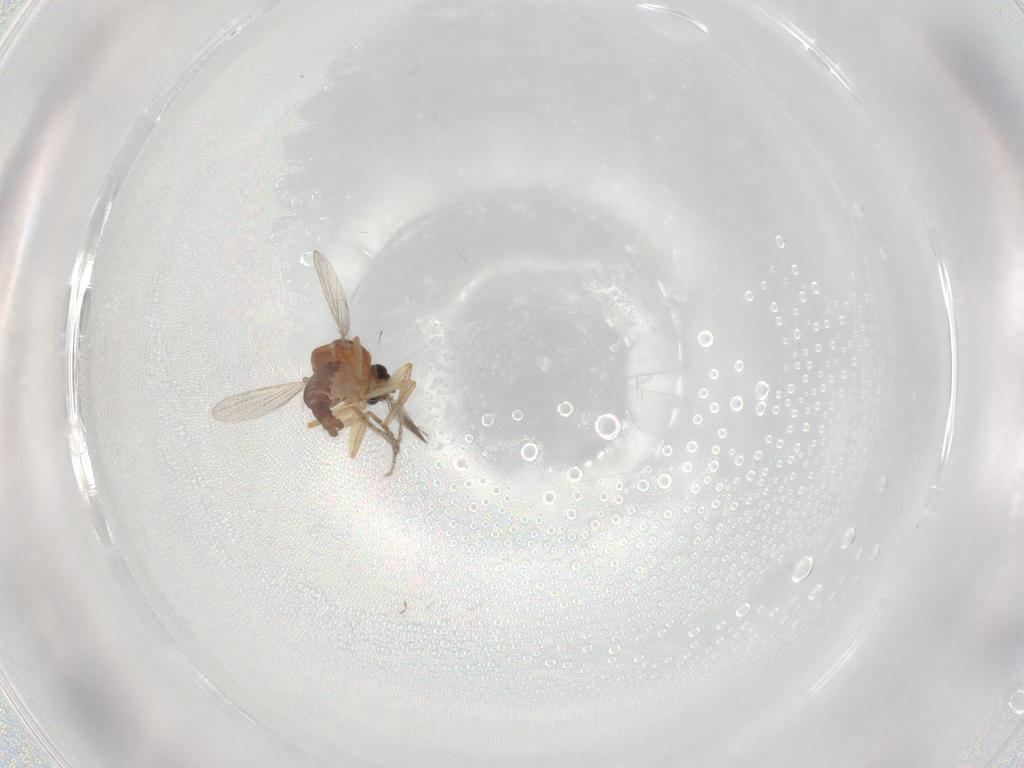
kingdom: Animalia
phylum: Arthropoda
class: Insecta
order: Diptera
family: Ceratopogonidae
